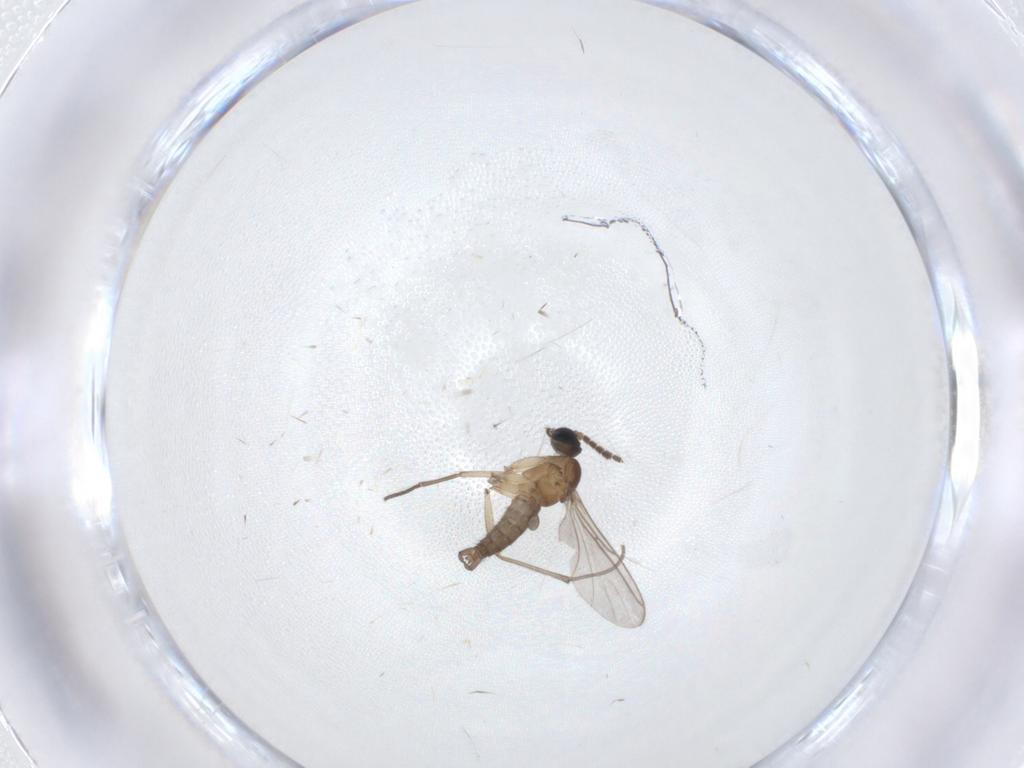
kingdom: Animalia
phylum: Arthropoda
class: Insecta
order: Diptera
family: Sciaridae
